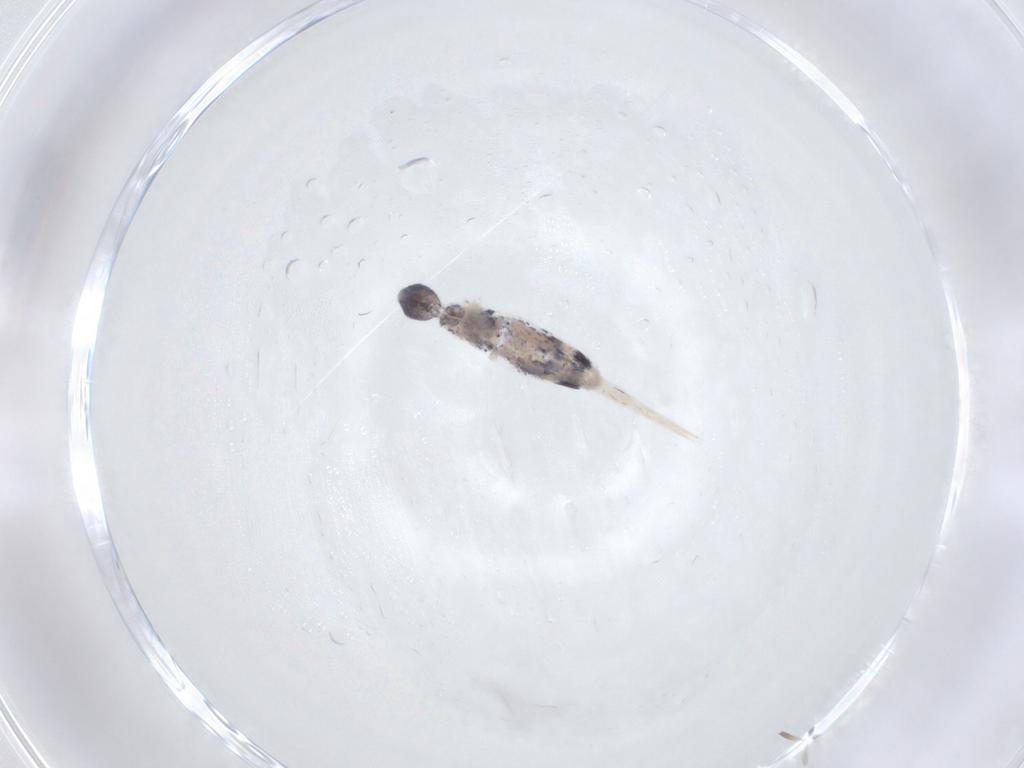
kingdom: Animalia
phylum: Arthropoda
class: Collembola
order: Entomobryomorpha
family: Entomobryidae
